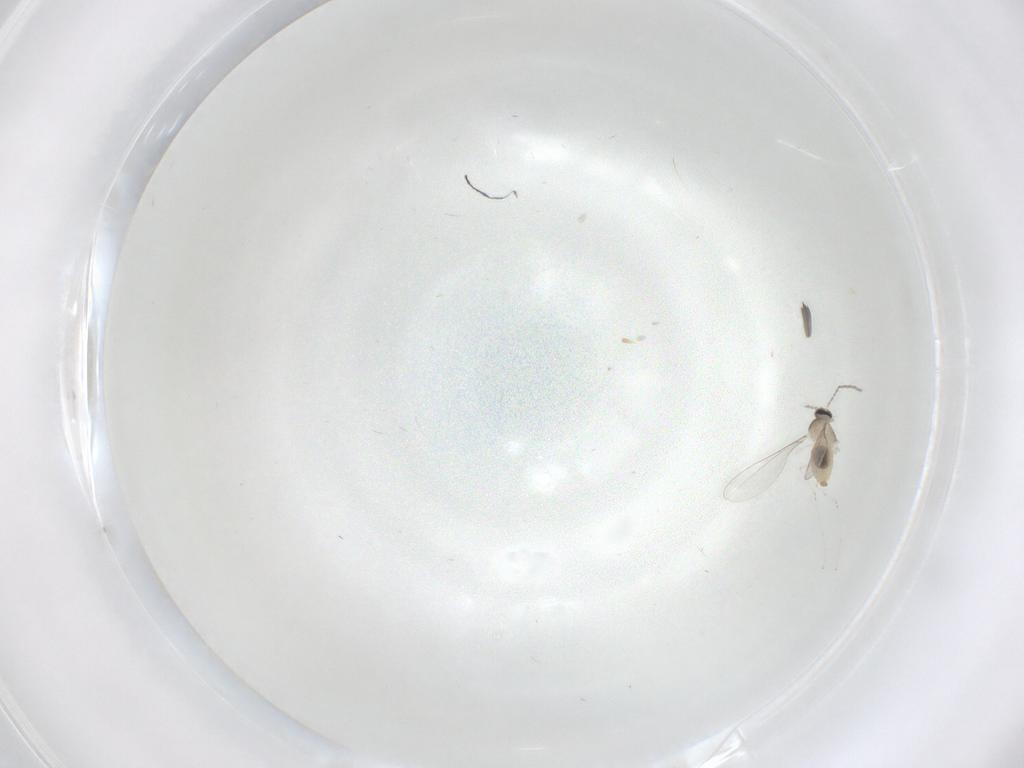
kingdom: Animalia
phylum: Arthropoda
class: Insecta
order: Diptera
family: Cecidomyiidae
